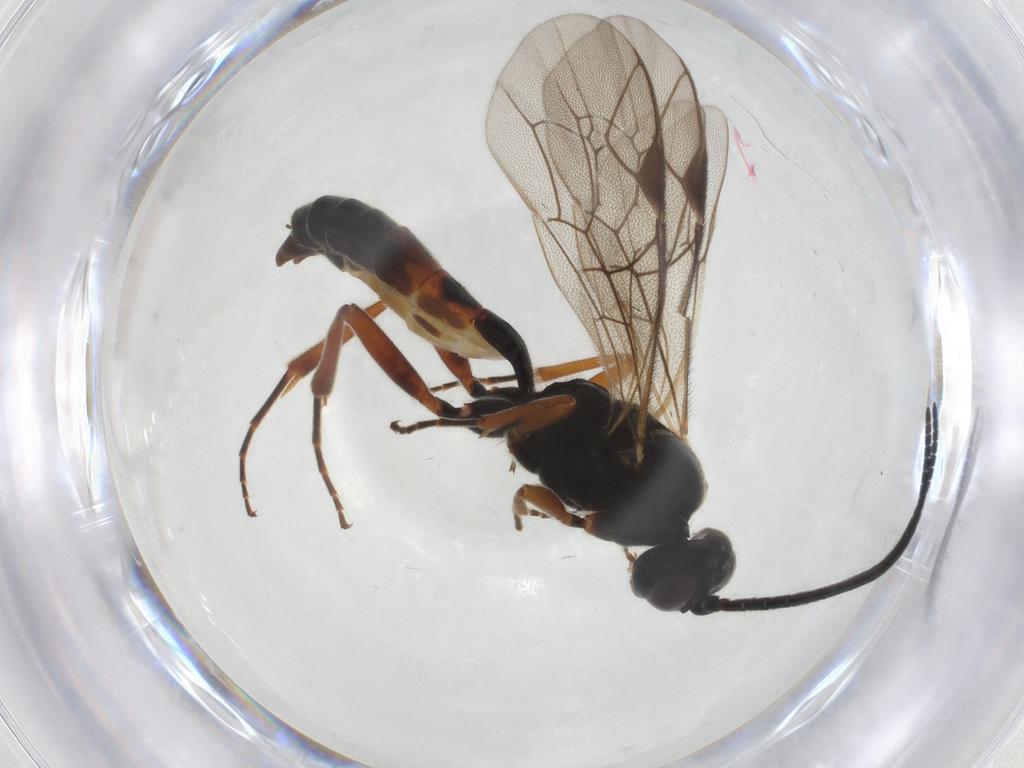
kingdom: Animalia
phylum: Arthropoda
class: Insecta
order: Hymenoptera
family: Ichneumonidae
